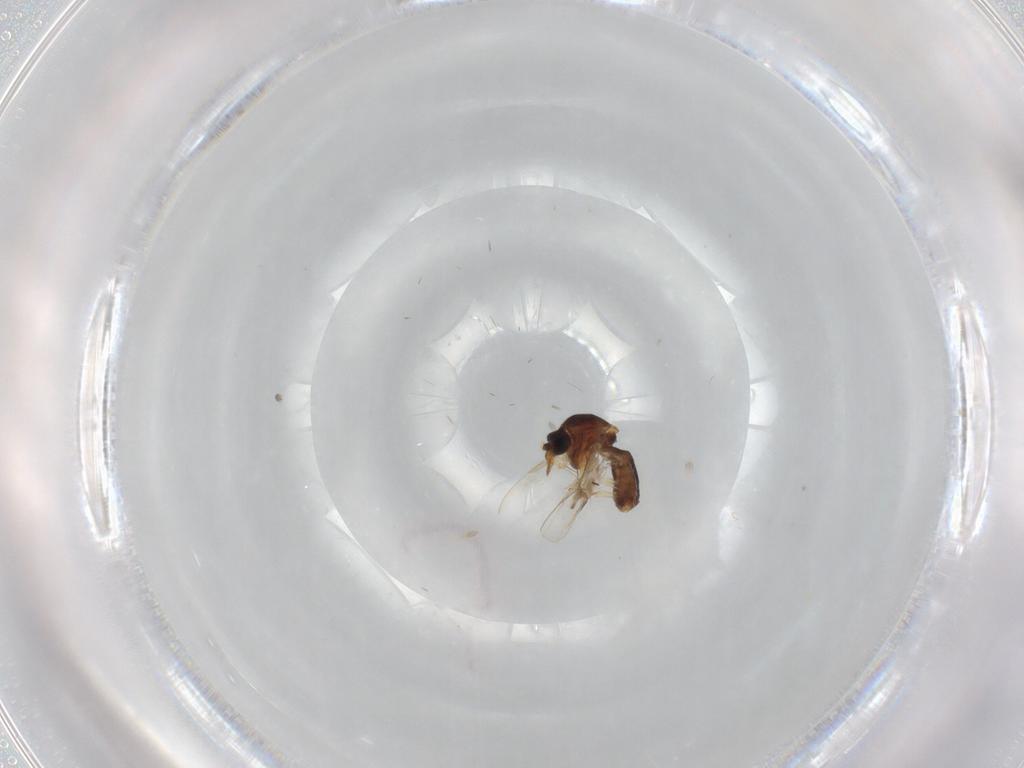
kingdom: Animalia
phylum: Arthropoda
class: Insecta
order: Diptera
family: Ceratopogonidae
